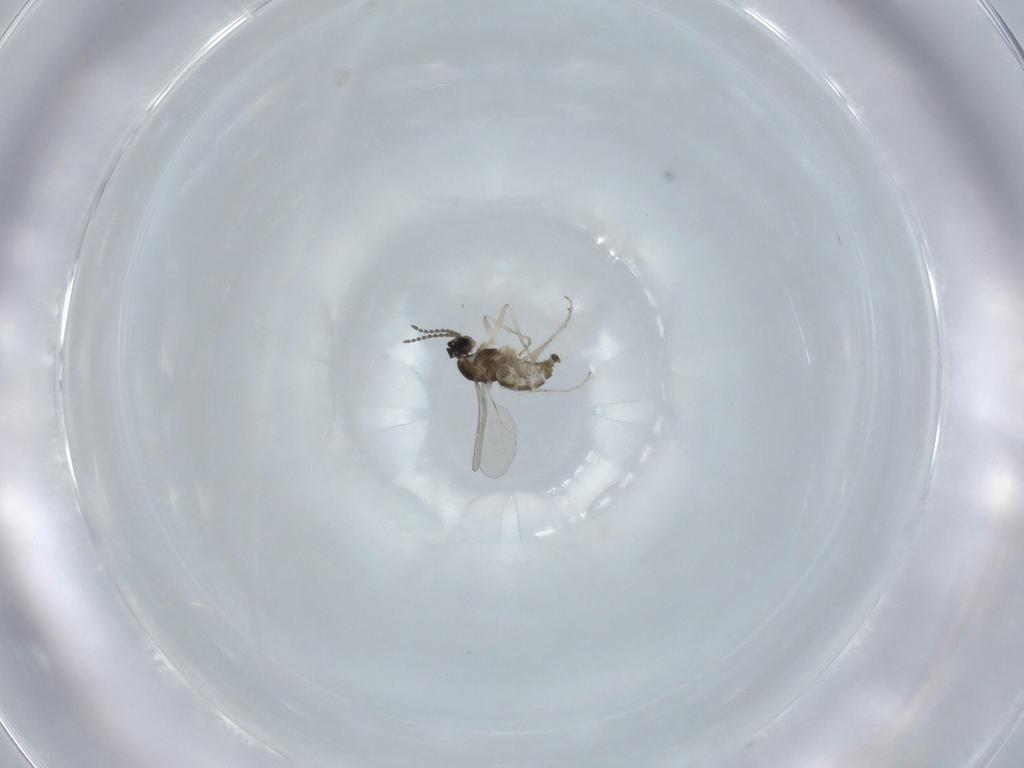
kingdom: Animalia
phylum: Arthropoda
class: Insecta
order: Diptera
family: Cecidomyiidae
